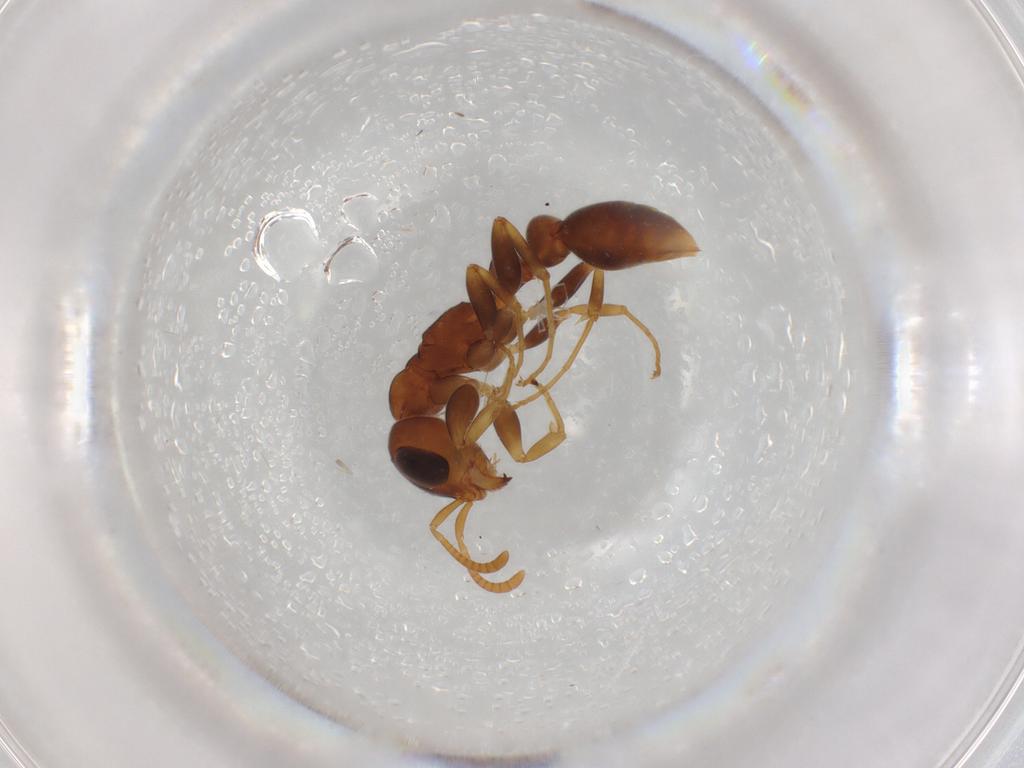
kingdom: Animalia
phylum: Arthropoda
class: Insecta
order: Hymenoptera
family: Formicidae
